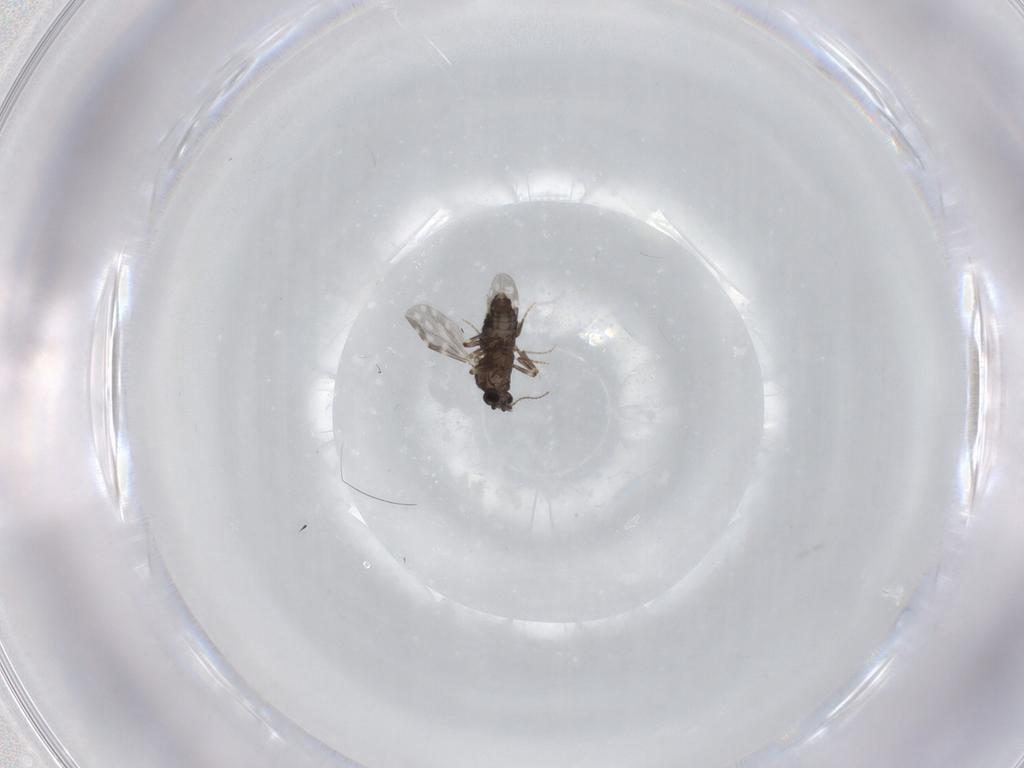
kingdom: Animalia
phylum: Arthropoda
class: Insecta
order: Diptera
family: Ceratopogonidae
